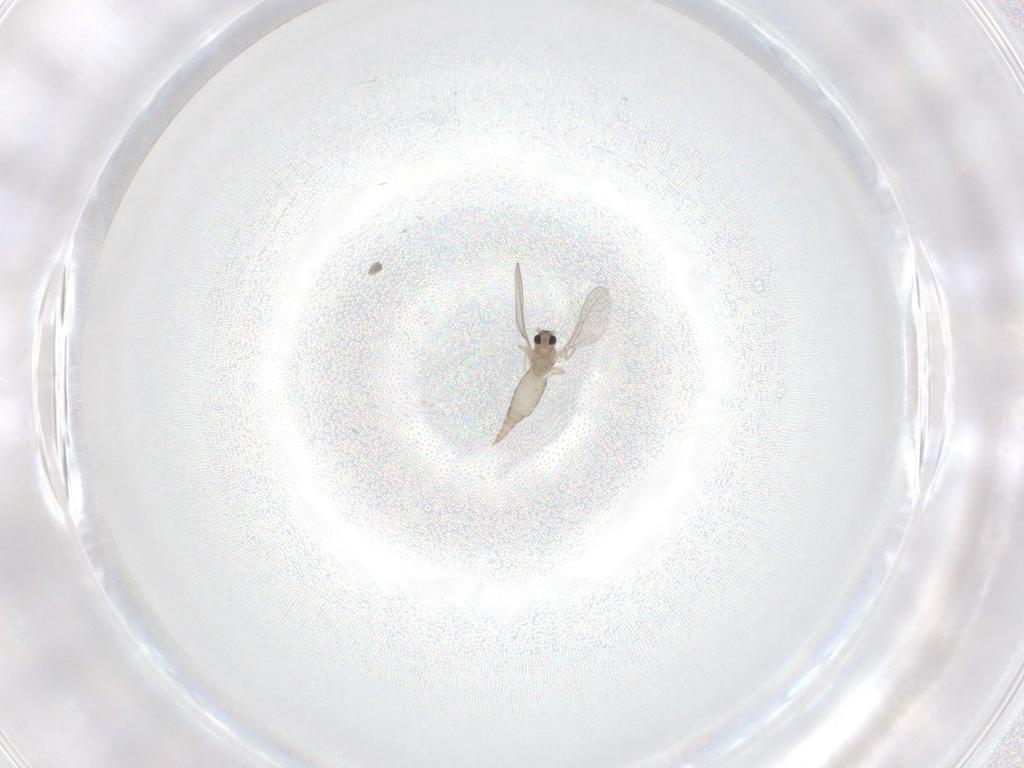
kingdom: Animalia
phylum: Arthropoda
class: Insecta
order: Diptera
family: Cecidomyiidae
